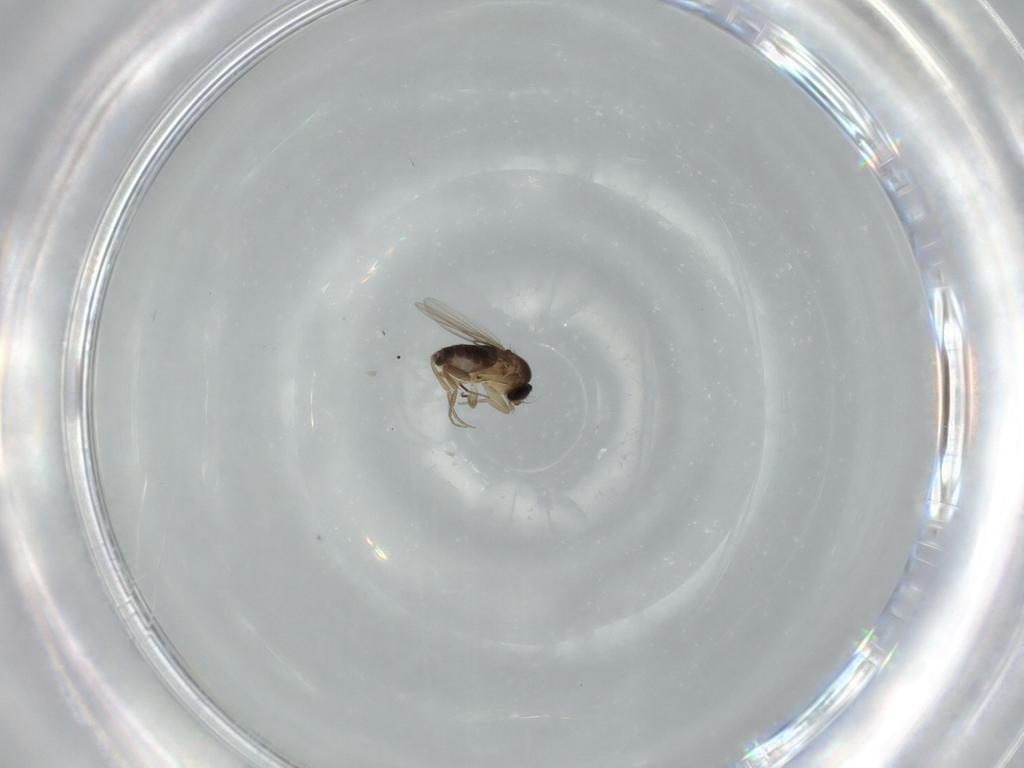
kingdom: Animalia
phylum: Arthropoda
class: Insecta
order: Diptera
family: Phoridae
